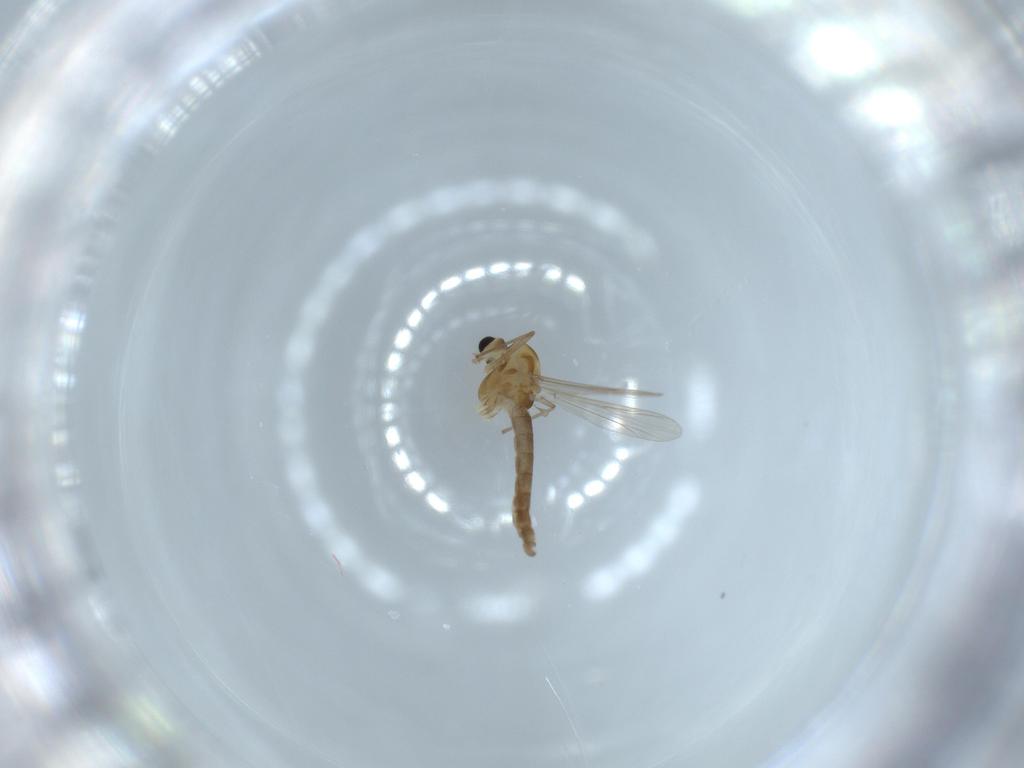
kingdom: Animalia
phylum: Arthropoda
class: Insecta
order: Diptera
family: Chironomidae
